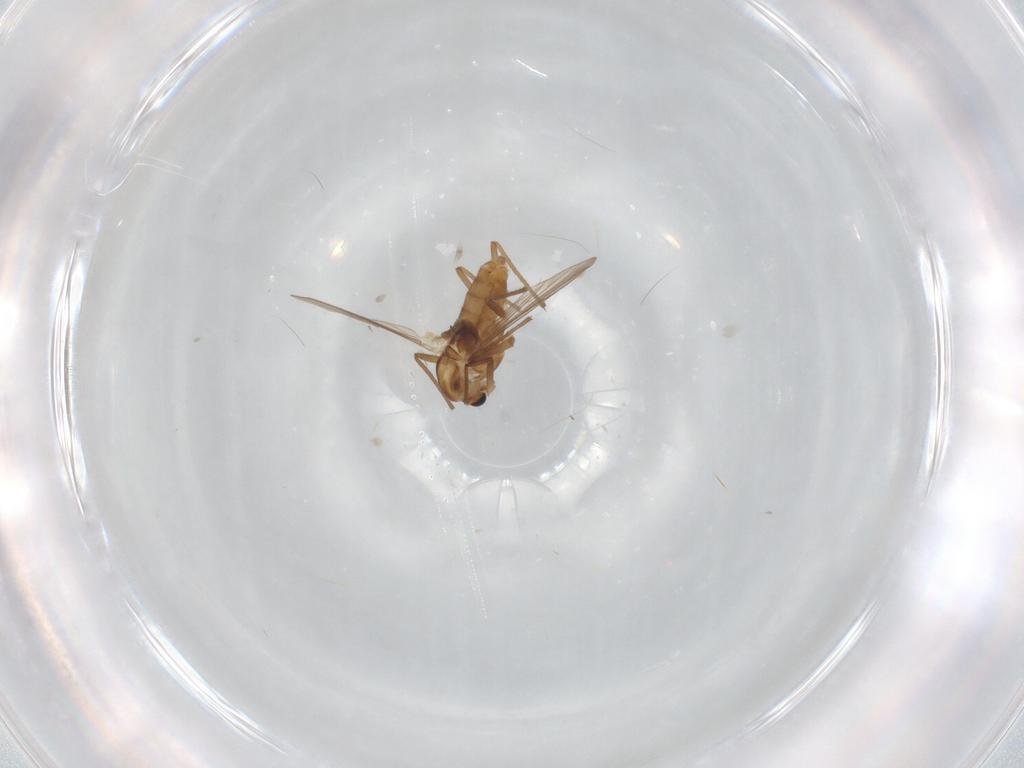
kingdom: Animalia
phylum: Arthropoda
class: Insecta
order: Diptera
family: Chironomidae
